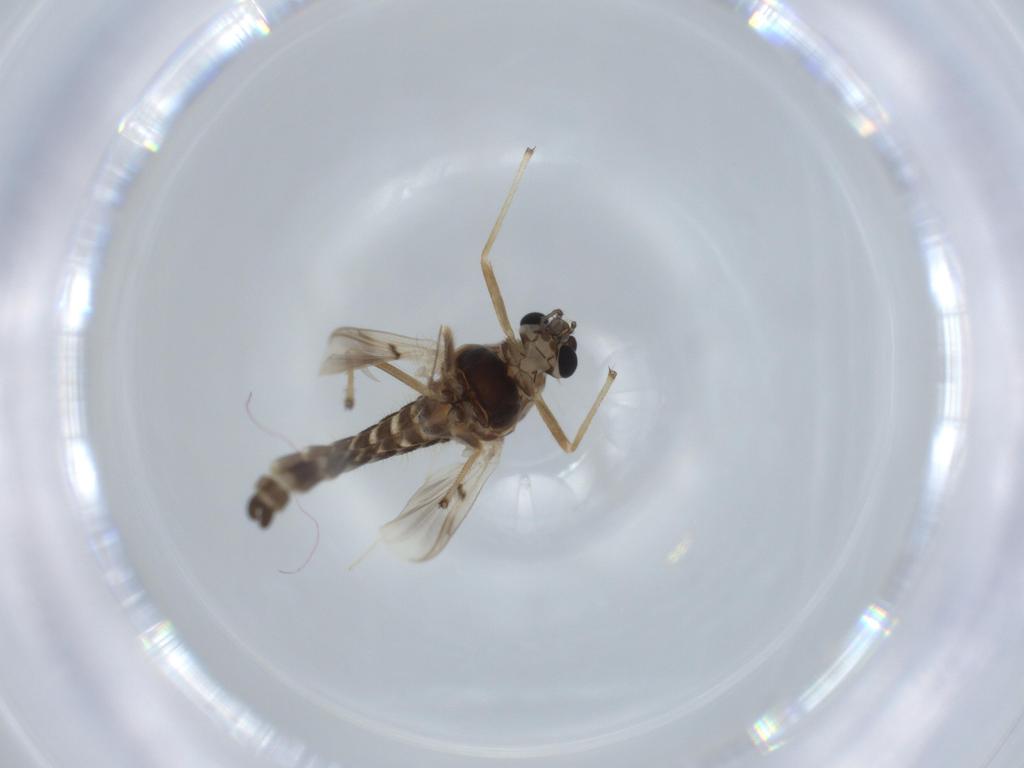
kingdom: Animalia
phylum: Arthropoda
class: Insecta
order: Diptera
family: Chironomidae
